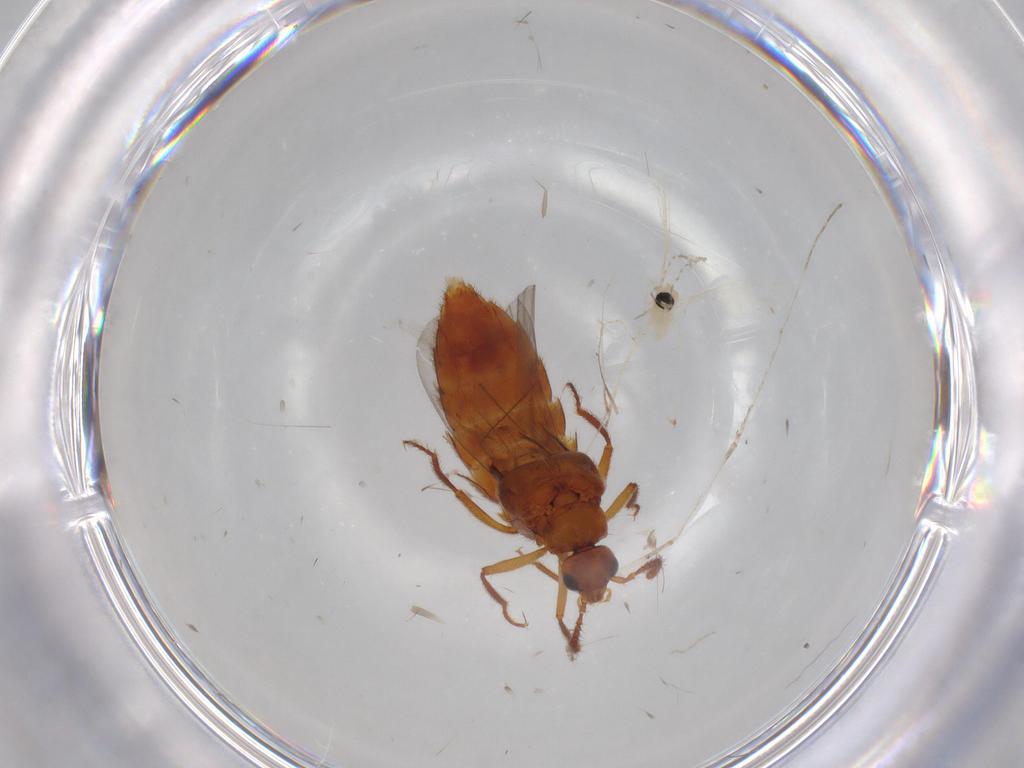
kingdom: Animalia
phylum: Arthropoda
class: Insecta
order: Diptera
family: Cecidomyiidae
